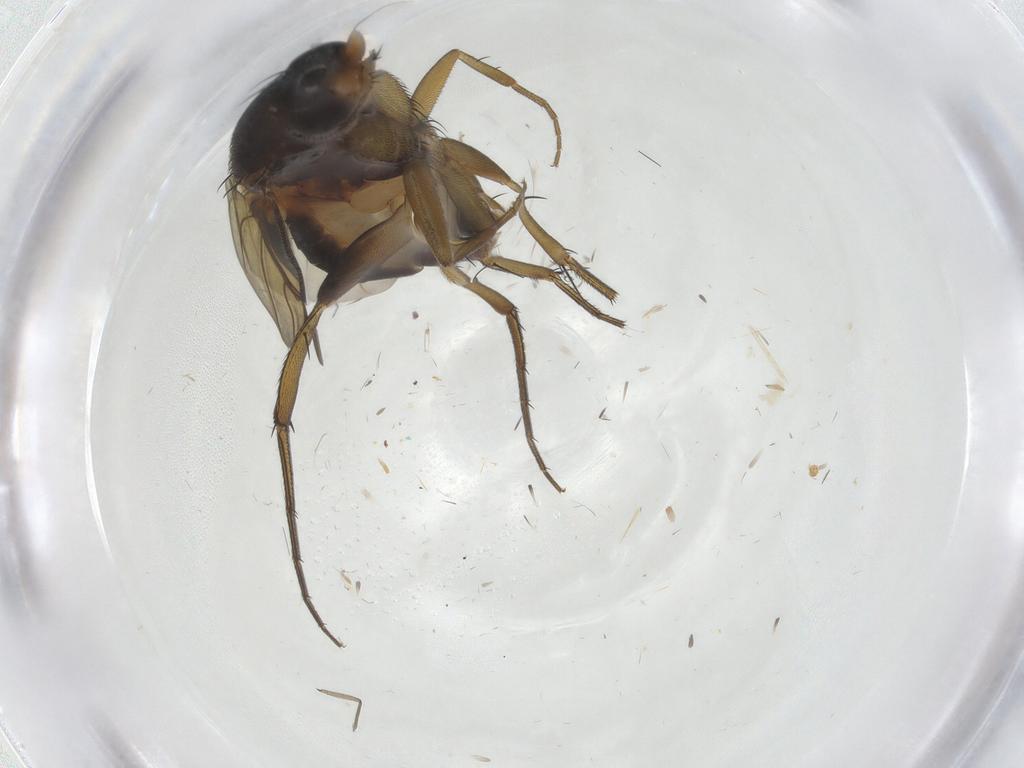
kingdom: Animalia
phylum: Arthropoda
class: Insecta
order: Diptera
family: Phoridae
